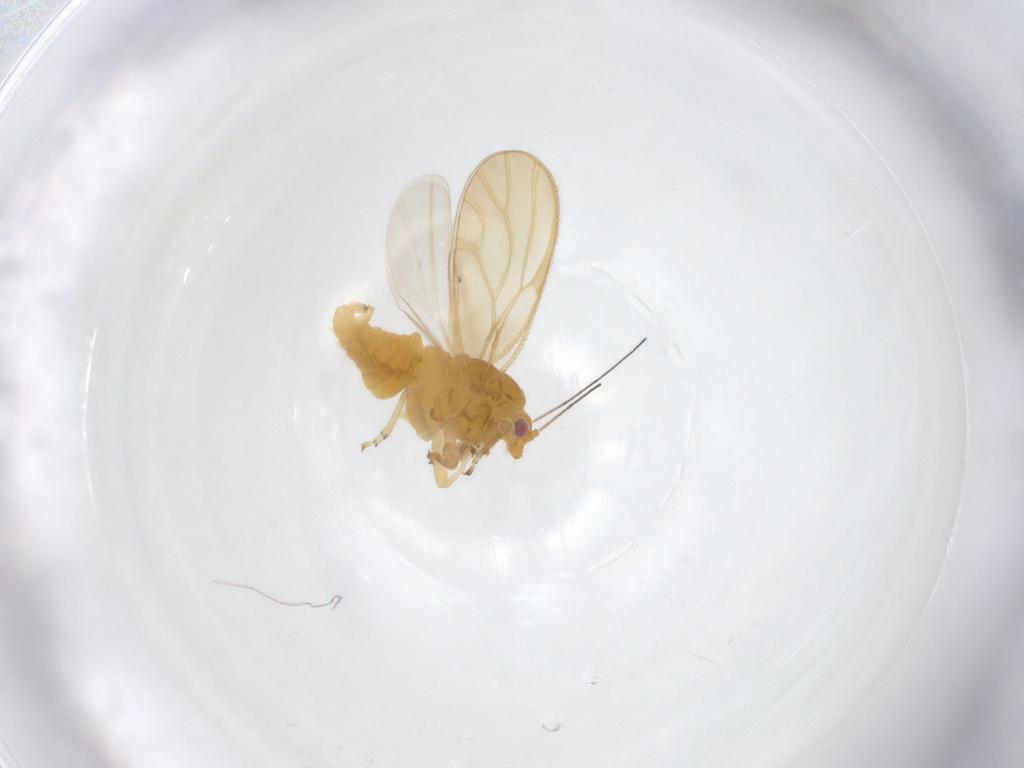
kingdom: Animalia
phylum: Arthropoda
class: Insecta
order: Hemiptera
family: Psyllidae
